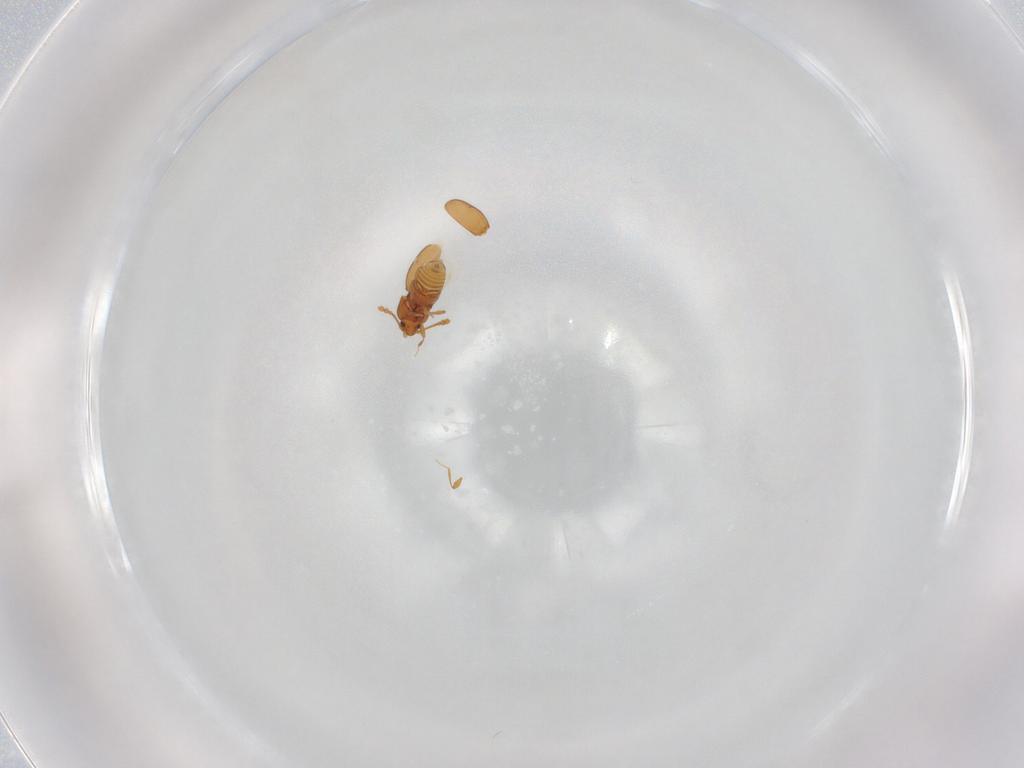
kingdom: Animalia
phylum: Arthropoda
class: Insecta
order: Coleoptera
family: Staphylinidae
